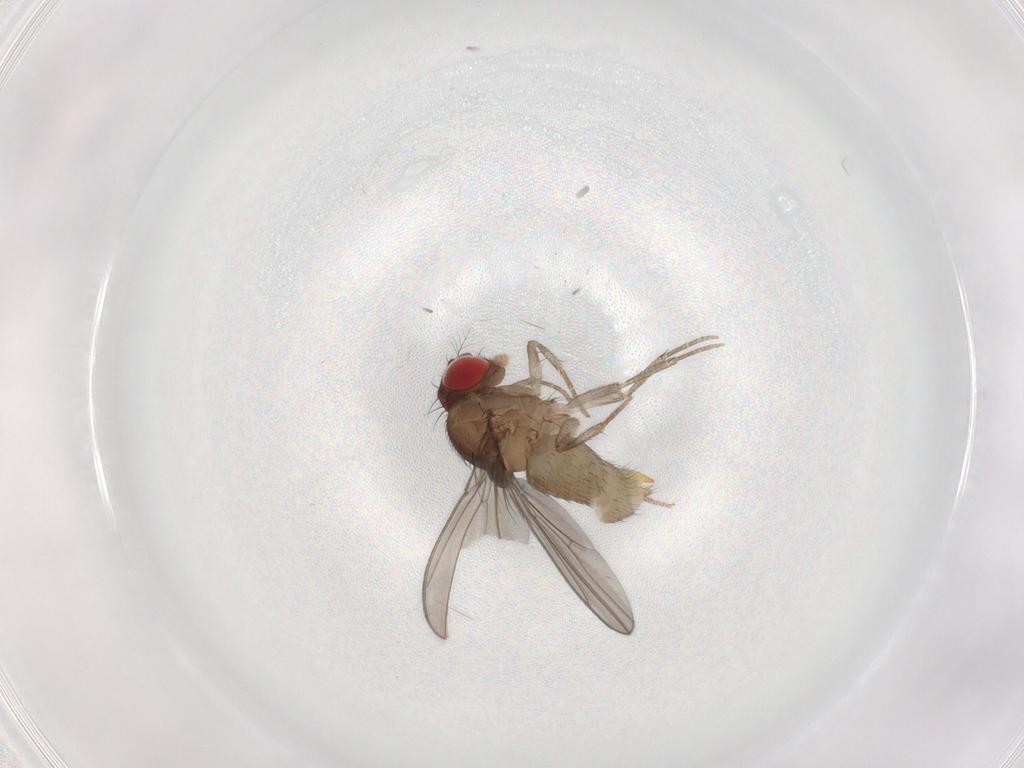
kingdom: Animalia
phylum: Arthropoda
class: Insecta
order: Diptera
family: Drosophilidae
